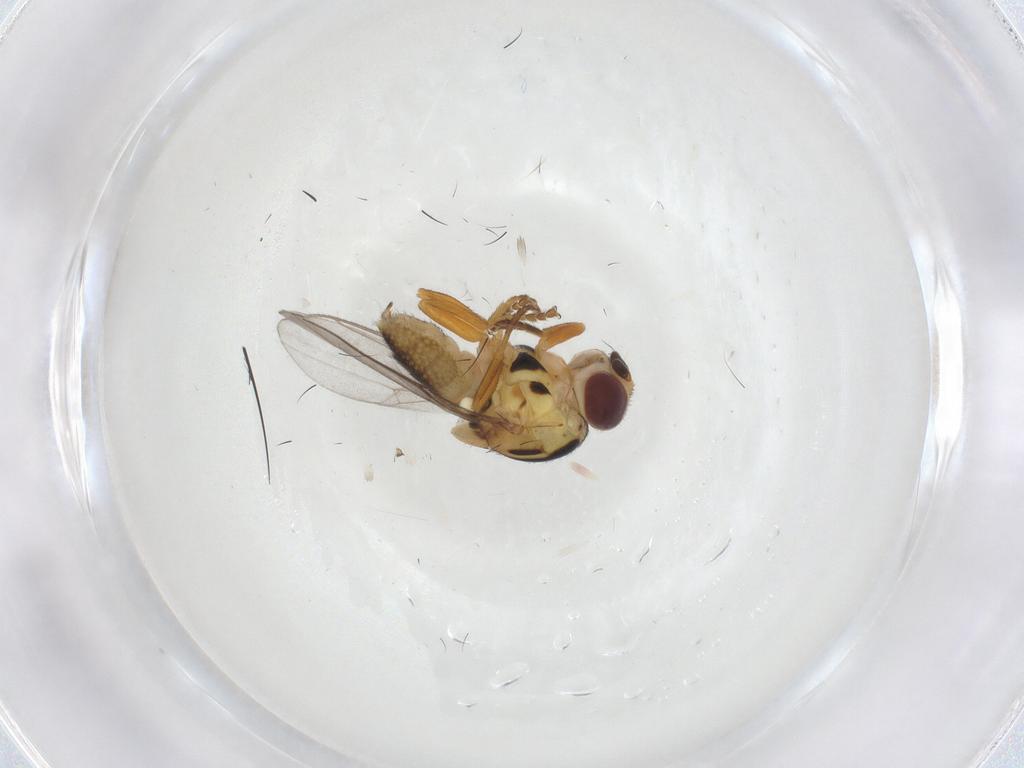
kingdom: Animalia
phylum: Arthropoda
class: Insecta
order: Diptera
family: Chloropidae
